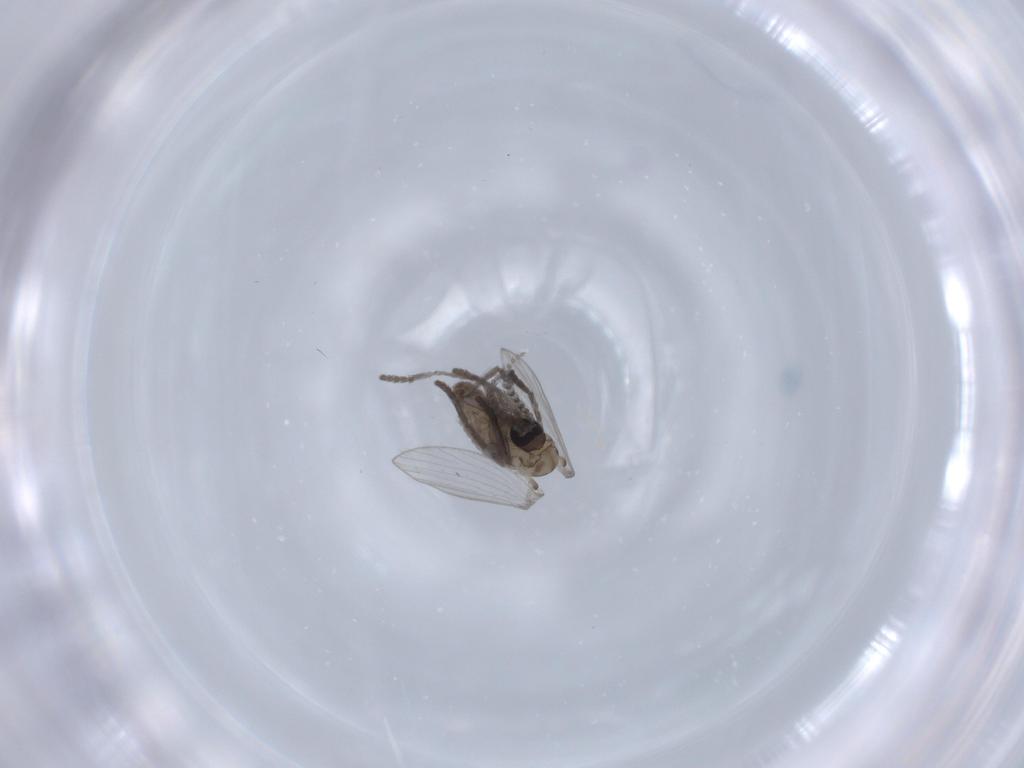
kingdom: Animalia
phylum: Arthropoda
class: Insecta
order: Diptera
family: Psychodidae
